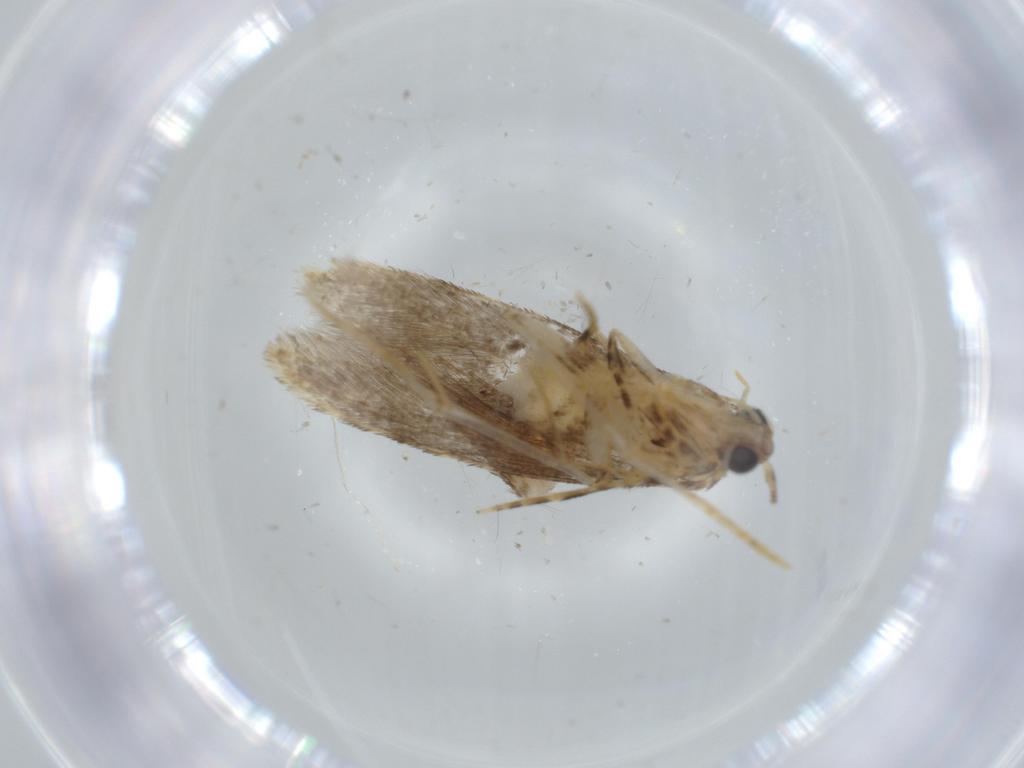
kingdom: Animalia
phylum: Arthropoda
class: Insecta
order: Lepidoptera
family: Tineidae
